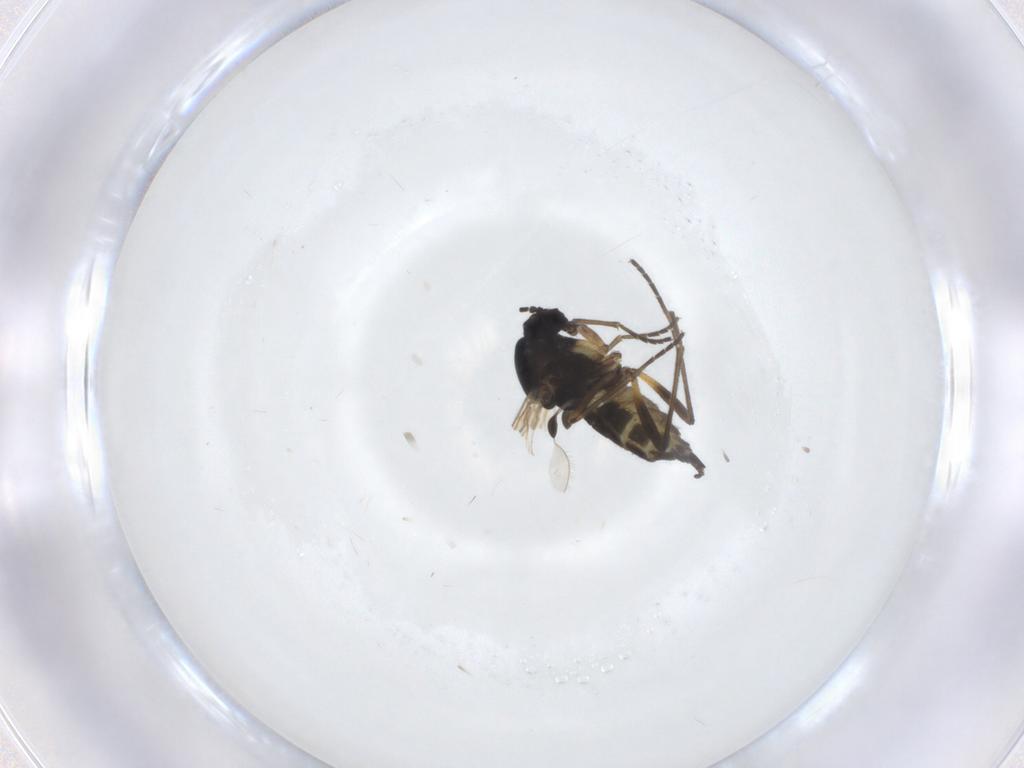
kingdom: Animalia
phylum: Arthropoda
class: Insecta
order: Diptera
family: Sciaridae
